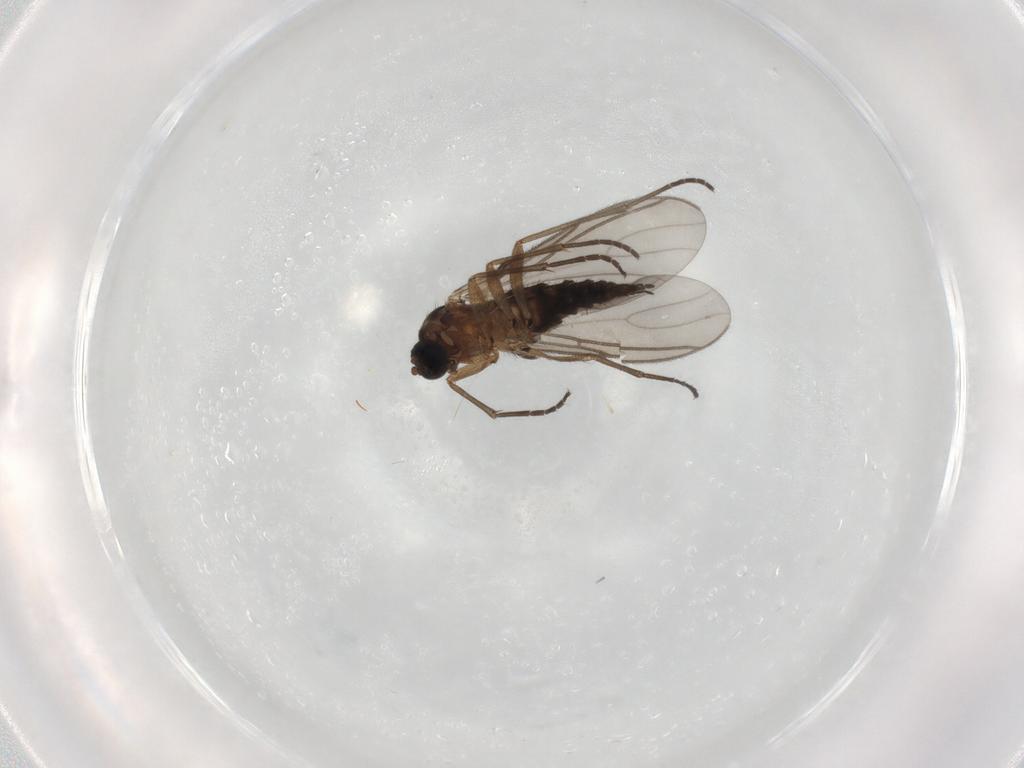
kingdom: Animalia
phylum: Arthropoda
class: Insecta
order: Diptera
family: Sciaridae
